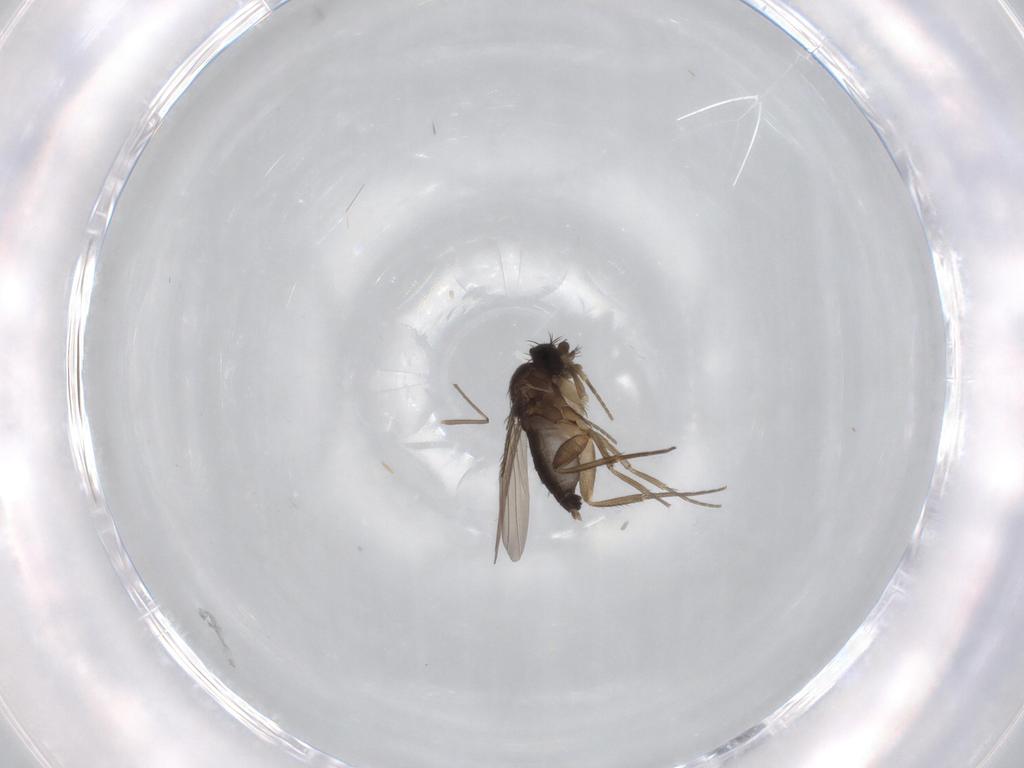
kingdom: Animalia
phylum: Arthropoda
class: Insecta
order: Diptera
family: Phoridae
